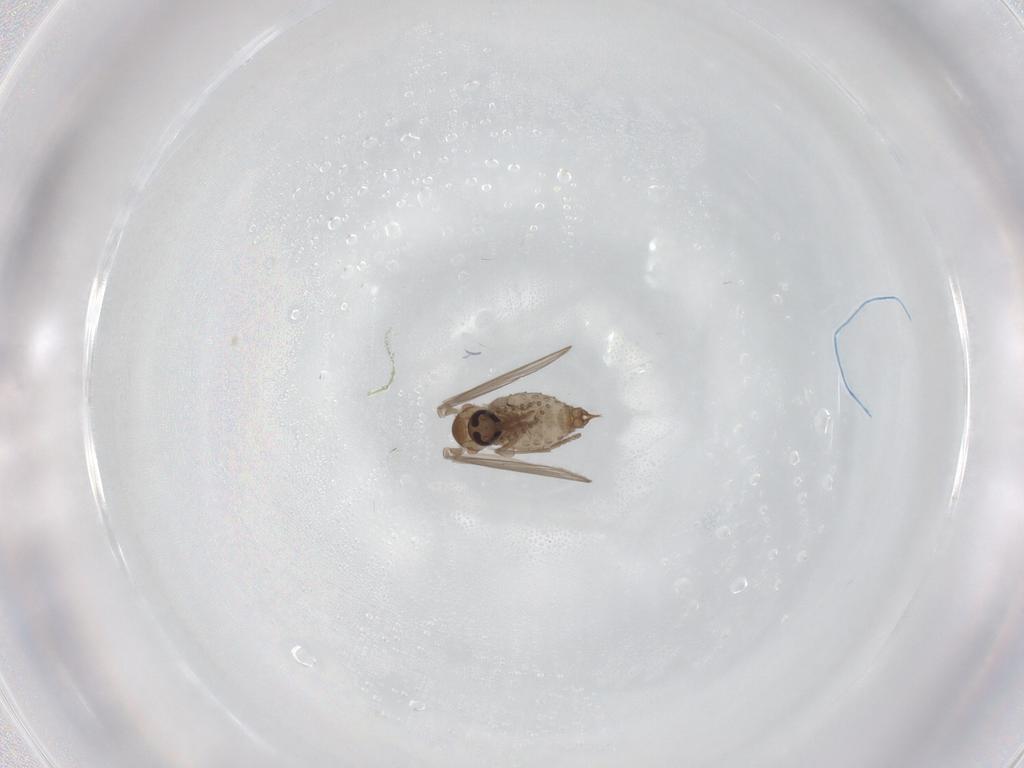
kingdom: Animalia
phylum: Arthropoda
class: Insecta
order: Diptera
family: Psychodidae
